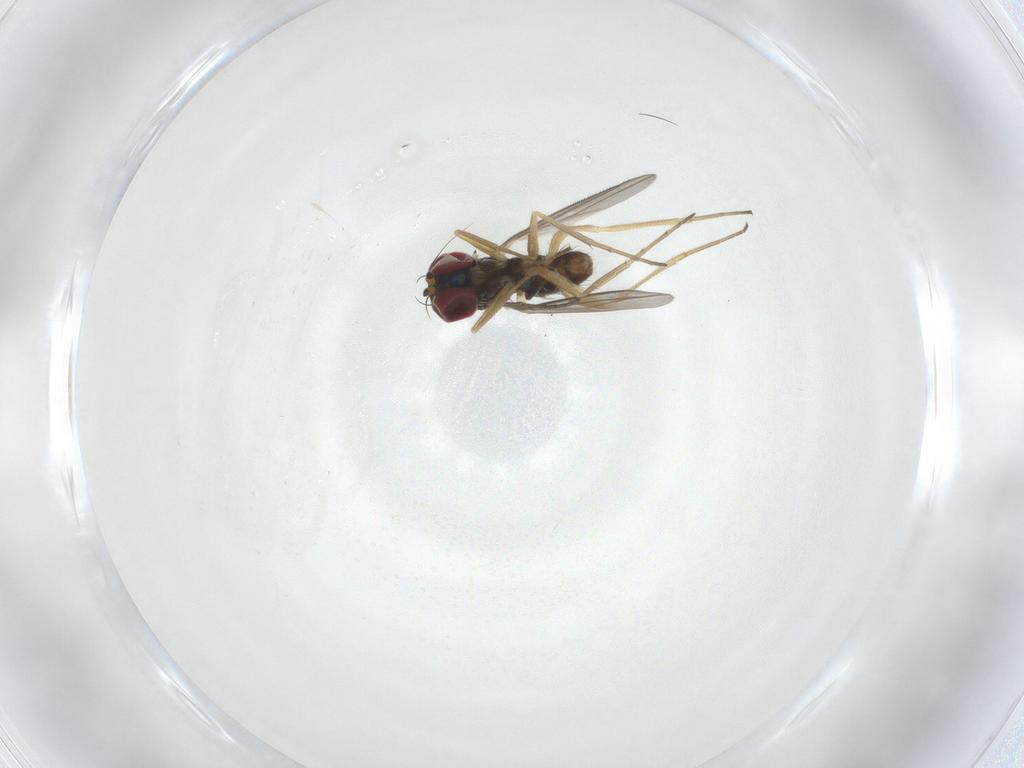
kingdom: Animalia
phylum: Arthropoda
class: Insecta
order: Diptera
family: Dolichopodidae
